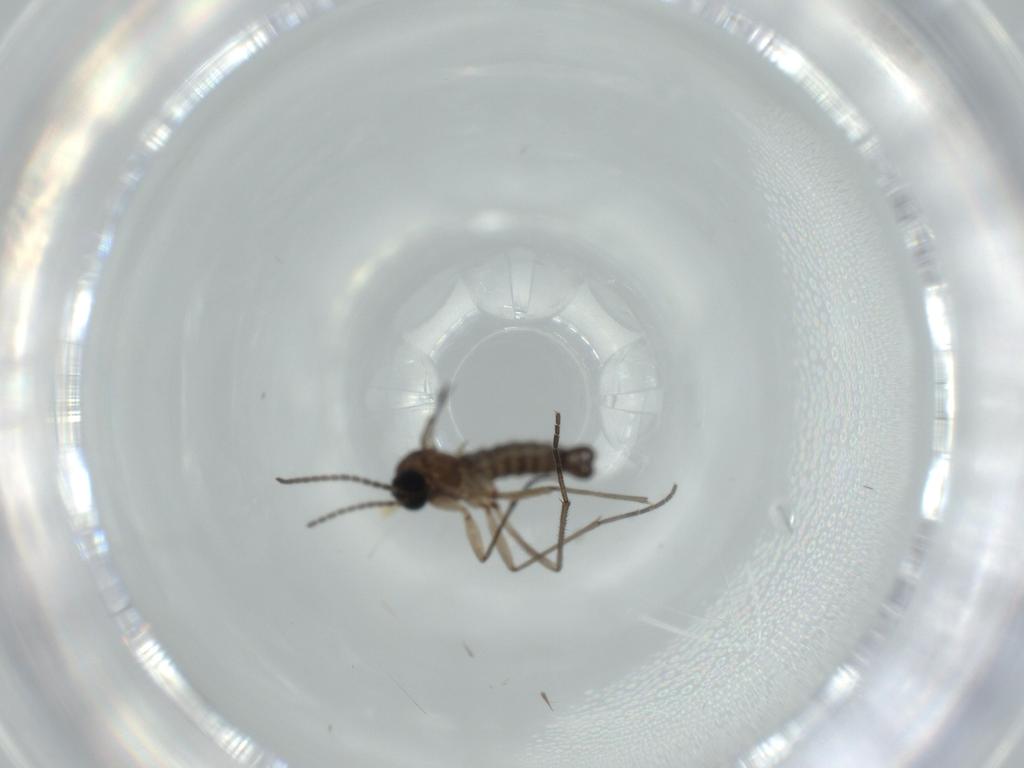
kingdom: Animalia
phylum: Arthropoda
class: Insecta
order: Diptera
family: Sciaridae
